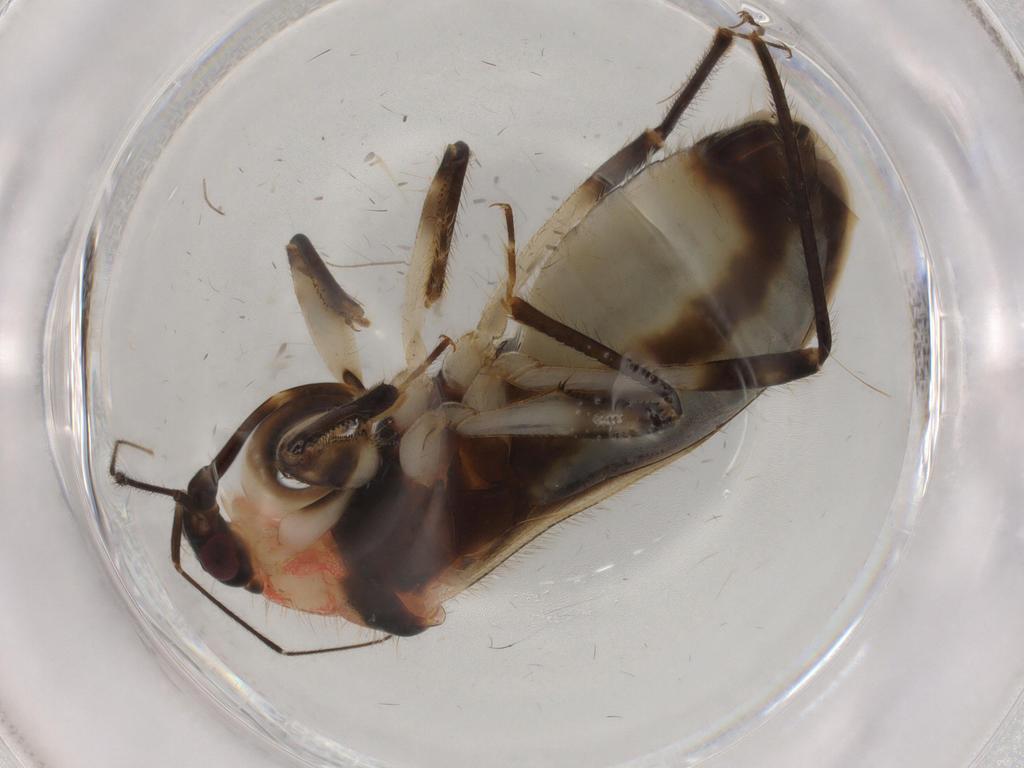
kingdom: Animalia
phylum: Arthropoda
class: Insecta
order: Hemiptera
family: Nabidae
